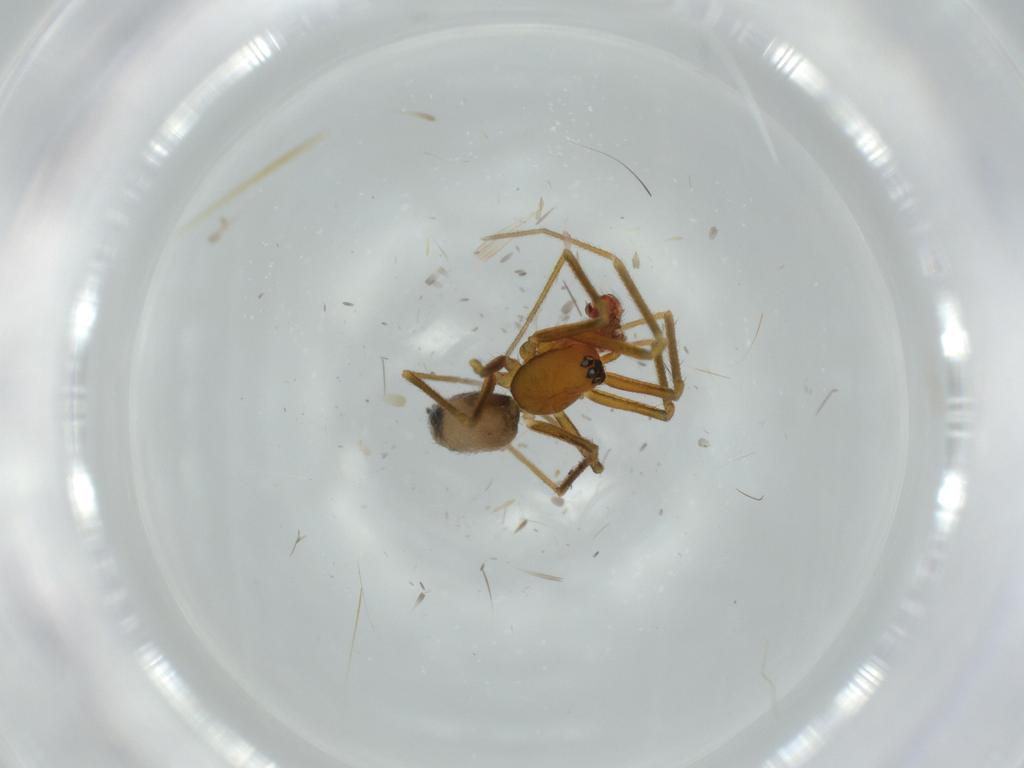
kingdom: Animalia
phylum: Arthropoda
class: Arachnida
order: Araneae
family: Linyphiidae
